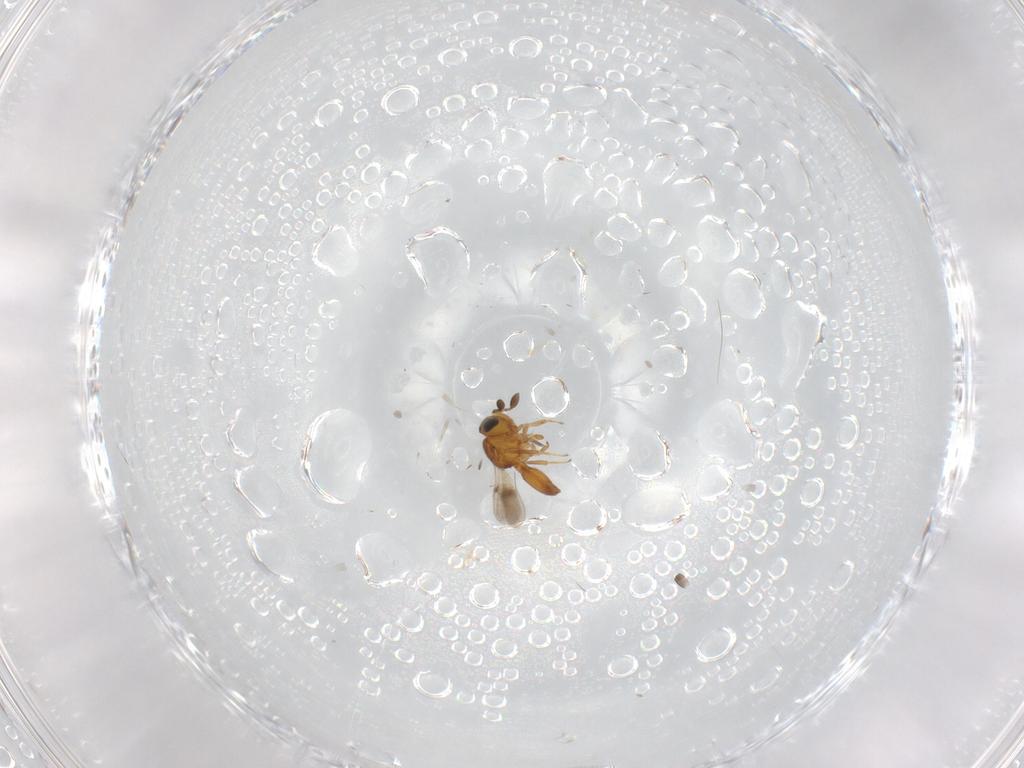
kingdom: Animalia
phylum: Arthropoda
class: Insecta
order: Hymenoptera
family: Scelionidae
